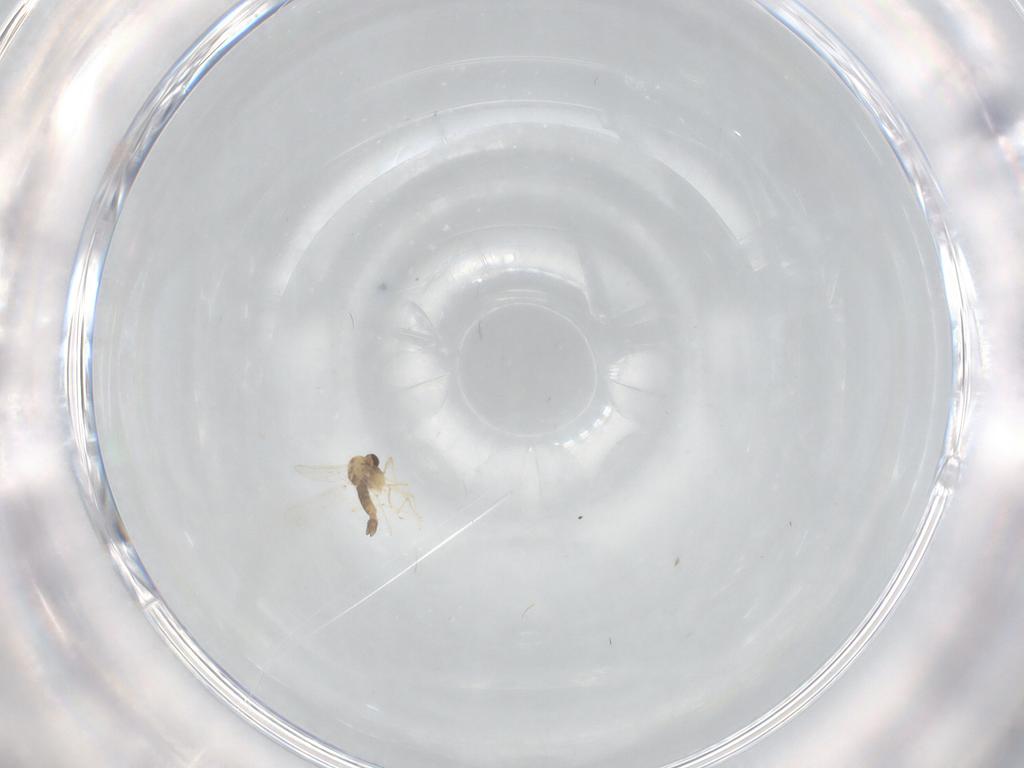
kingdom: Animalia
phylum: Arthropoda
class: Insecta
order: Diptera
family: Chironomidae
